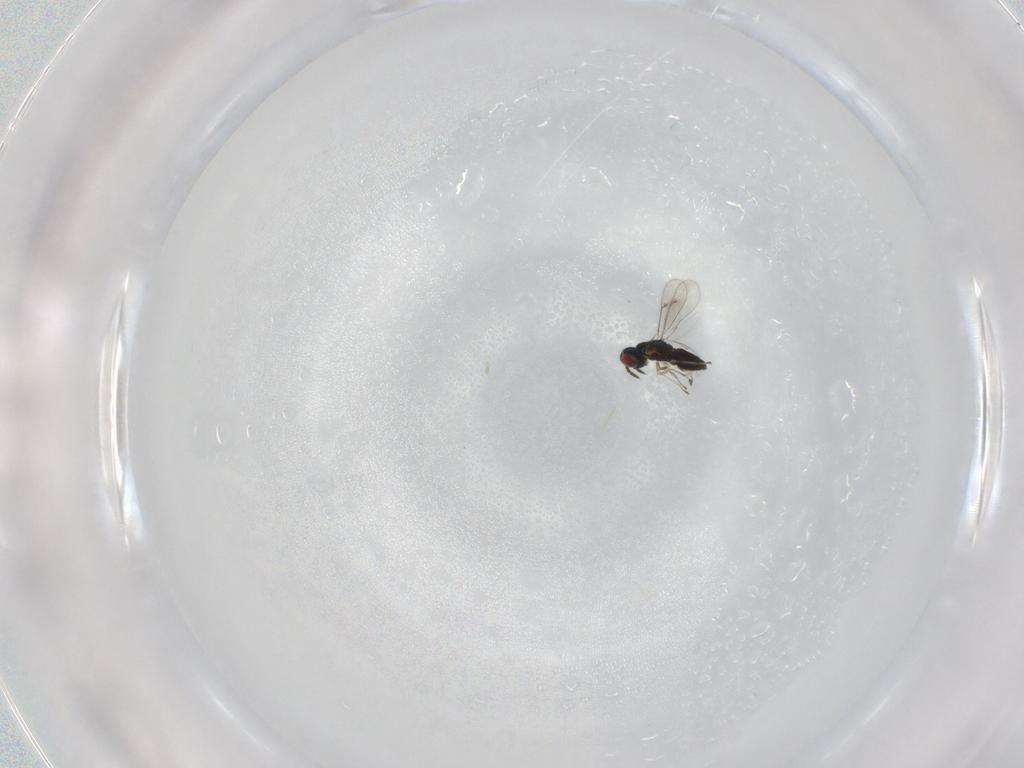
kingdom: Animalia
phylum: Arthropoda
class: Insecta
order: Hymenoptera
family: Eulophidae
